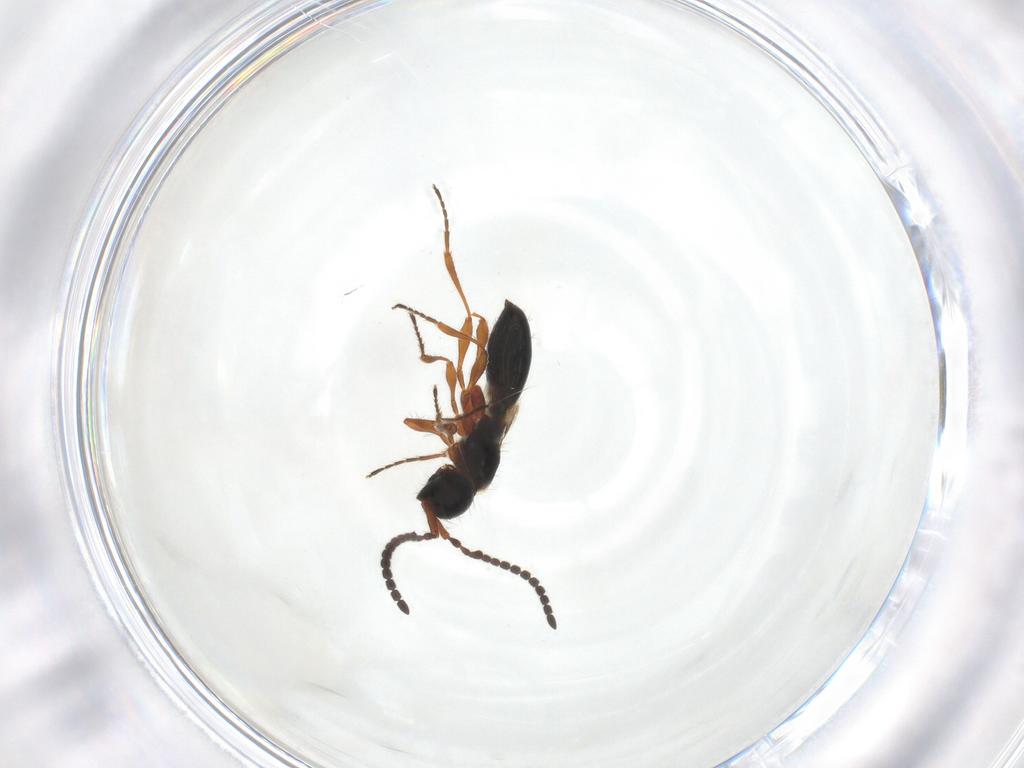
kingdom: Animalia
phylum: Arthropoda
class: Insecta
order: Hymenoptera
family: Diapriidae
